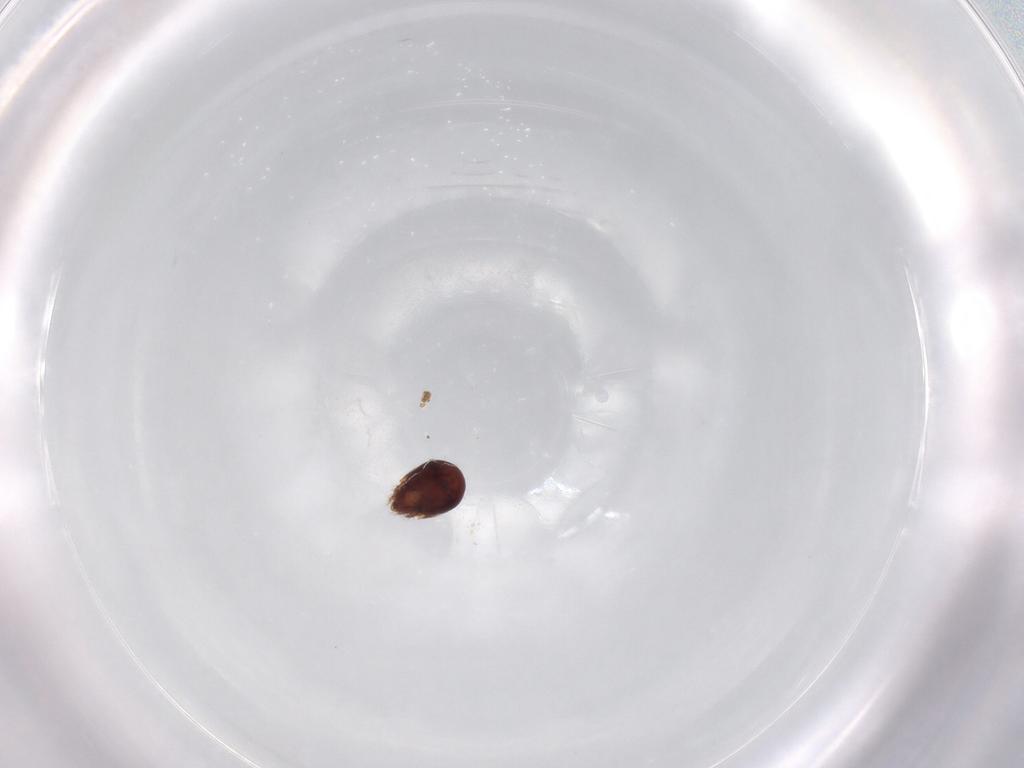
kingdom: Animalia
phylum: Arthropoda
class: Arachnida
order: Sarcoptiformes
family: Humerobatidae
